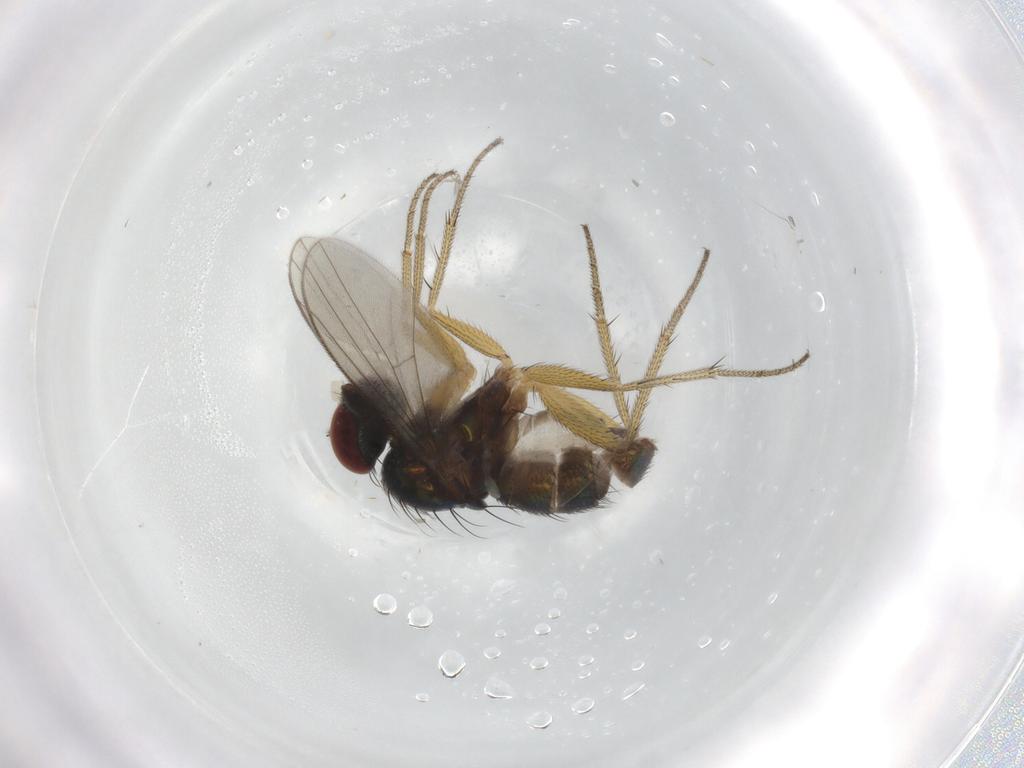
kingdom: Animalia
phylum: Arthropoda
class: Insecta
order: Diptera
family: Dolichopodidae
